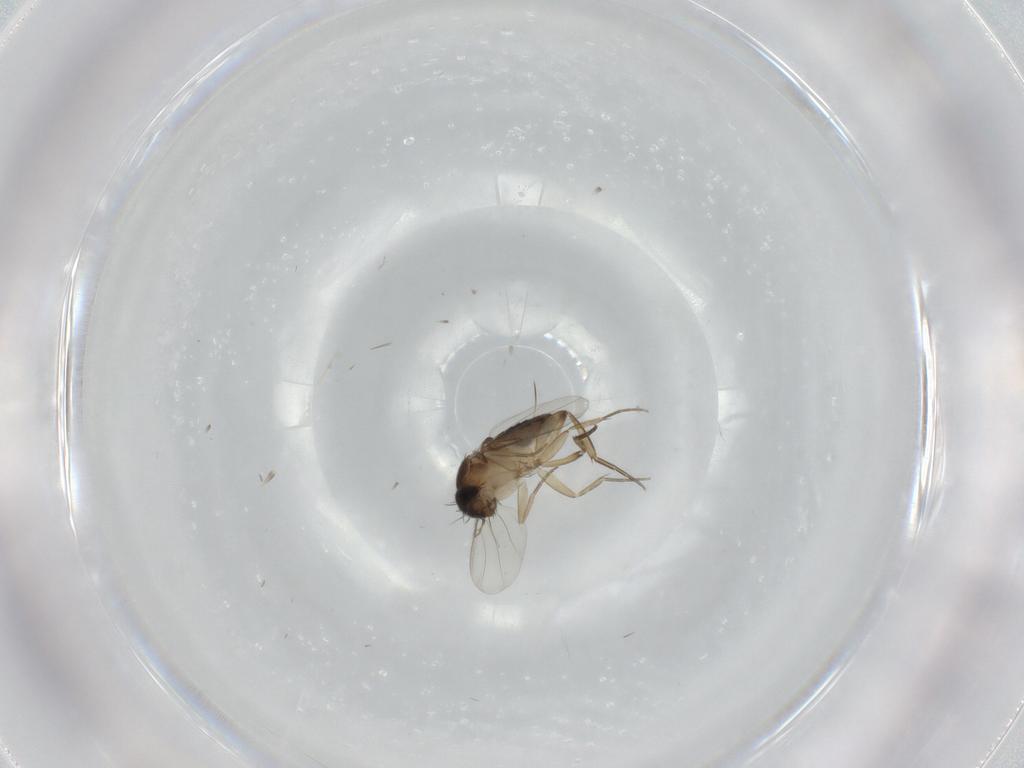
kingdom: Animalia
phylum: Arthropoda
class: Insecta
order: Diptera
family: Phoridae
